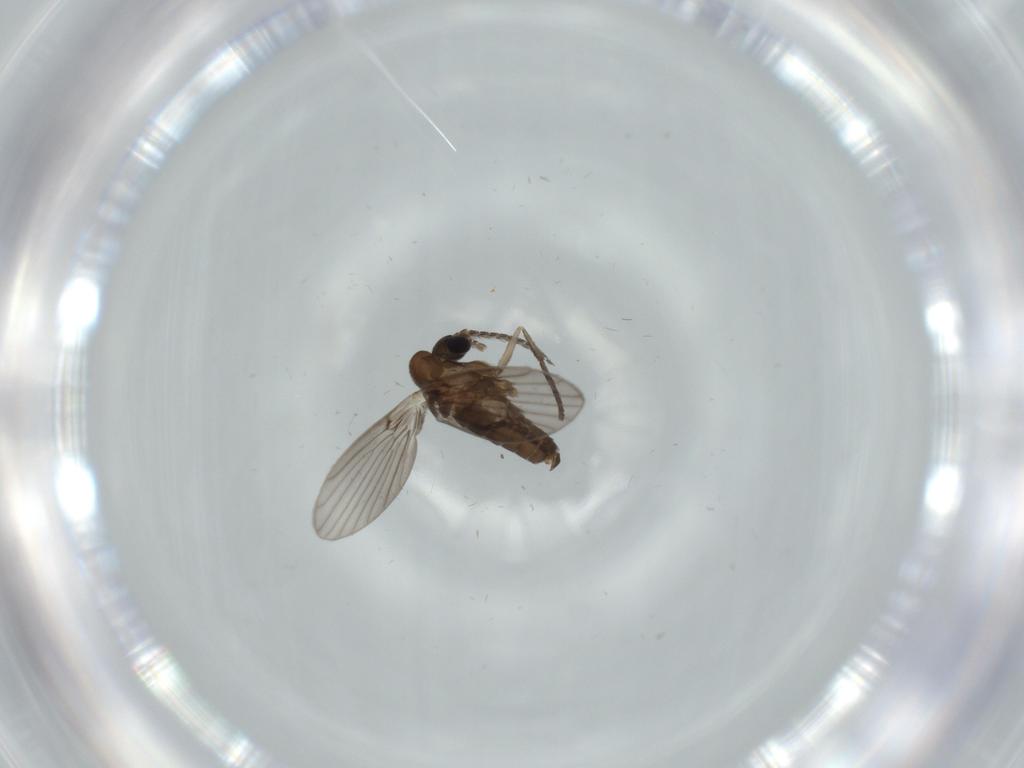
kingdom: Animalia
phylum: Arthropoda
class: Insecta
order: Diptera
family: Psychodidae
